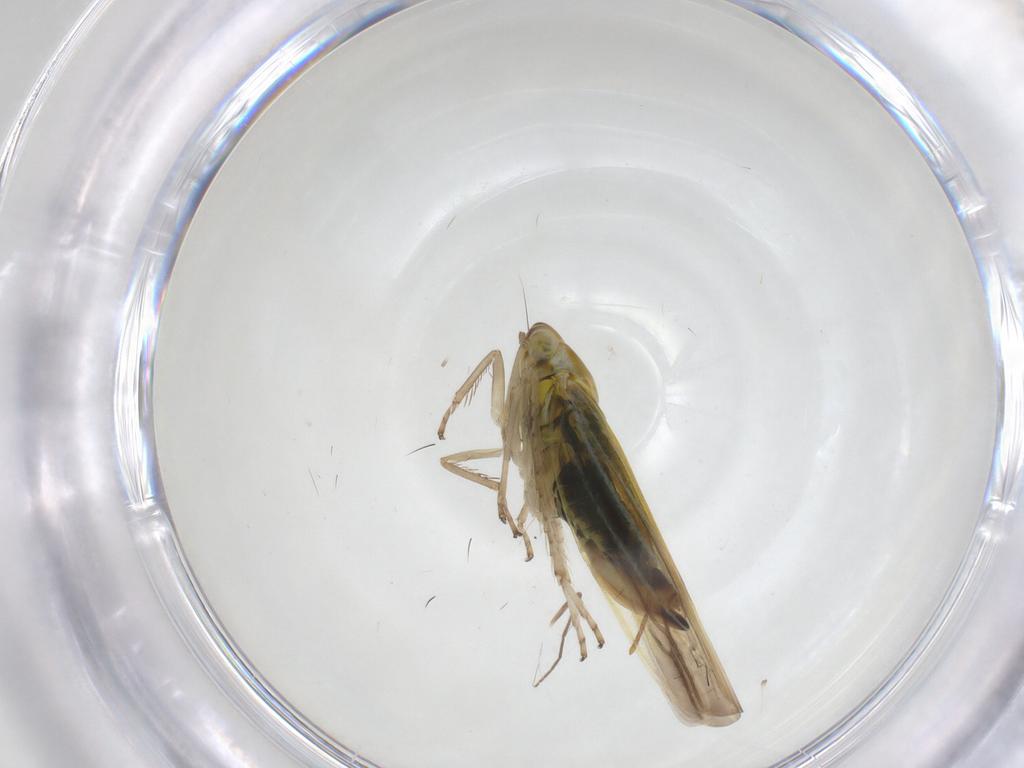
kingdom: Animalia
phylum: Arthropoda
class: Insecta
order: Hemiptera
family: Cicadellidae
